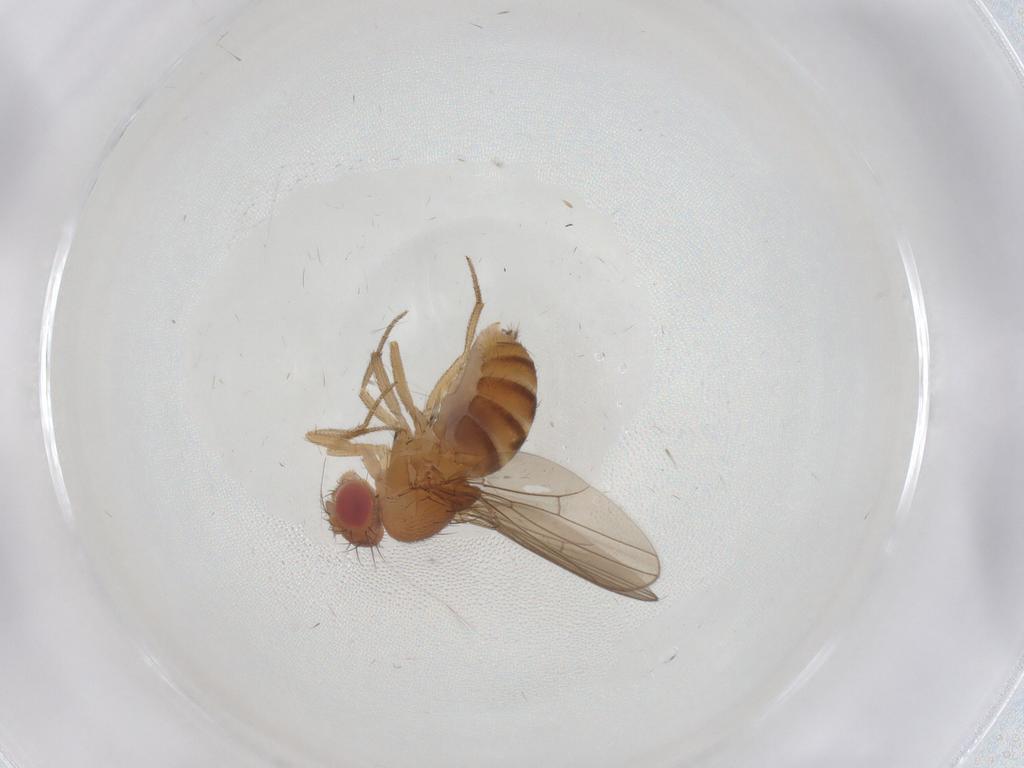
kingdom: Animalia
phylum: Arthropoda
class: Insecta
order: Diptera
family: Drosophilidae
